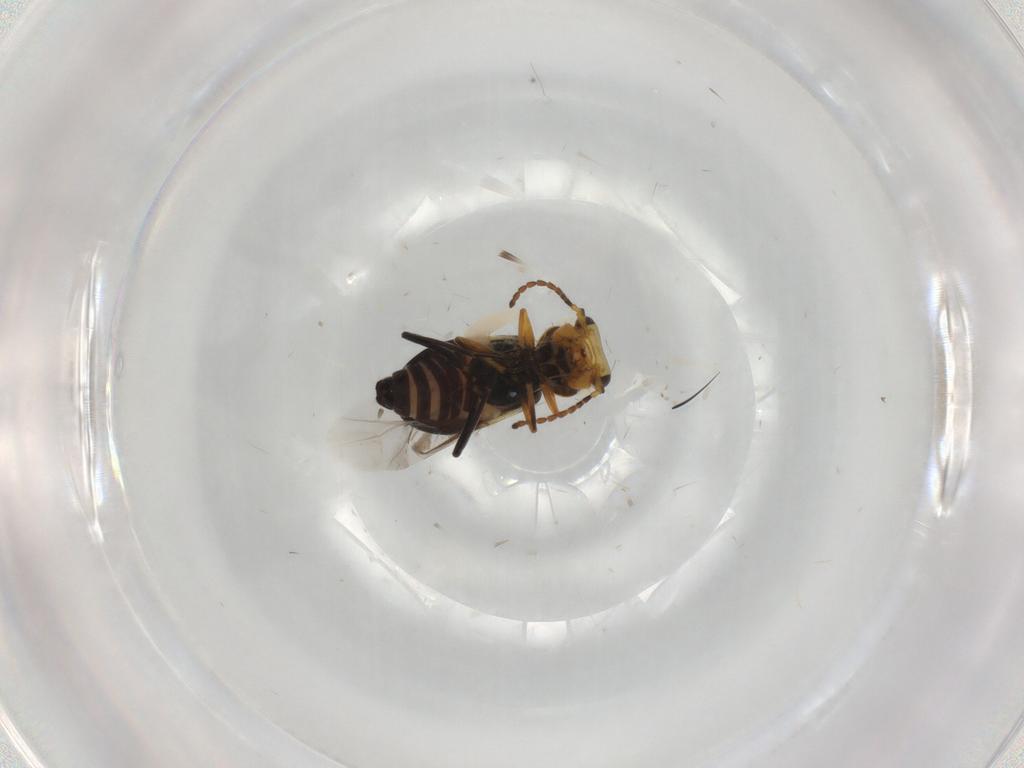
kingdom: Animalia
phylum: Arthropoda
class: Insecta
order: Coleoptera
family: Melyridae
